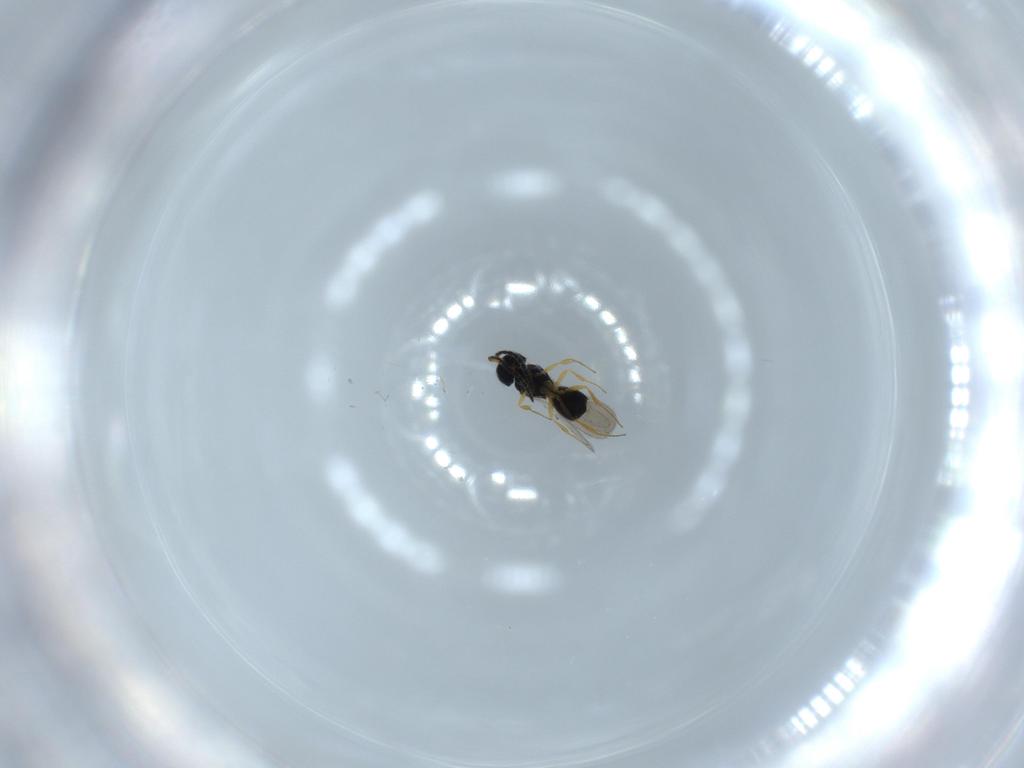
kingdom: Animalia
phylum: Arthropoda
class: Insecta
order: Hymenoptera
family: Scelionidae
